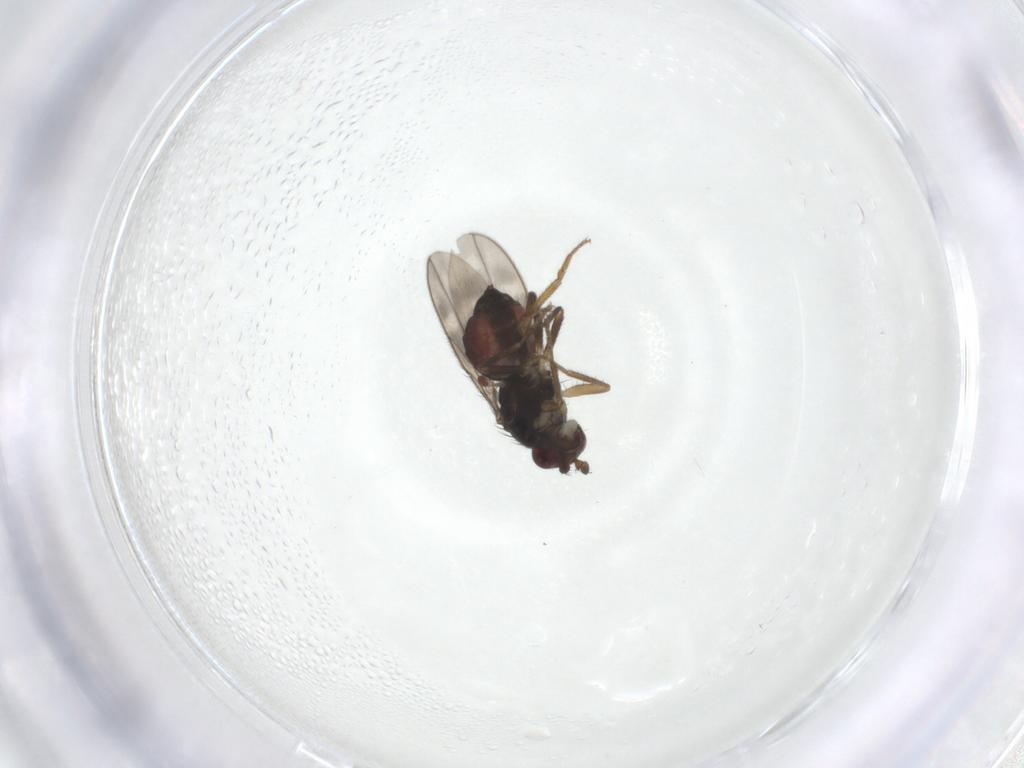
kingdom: Animalia
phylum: Arthropoda
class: Insecta
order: Diptera
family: Sphaeroceridae
